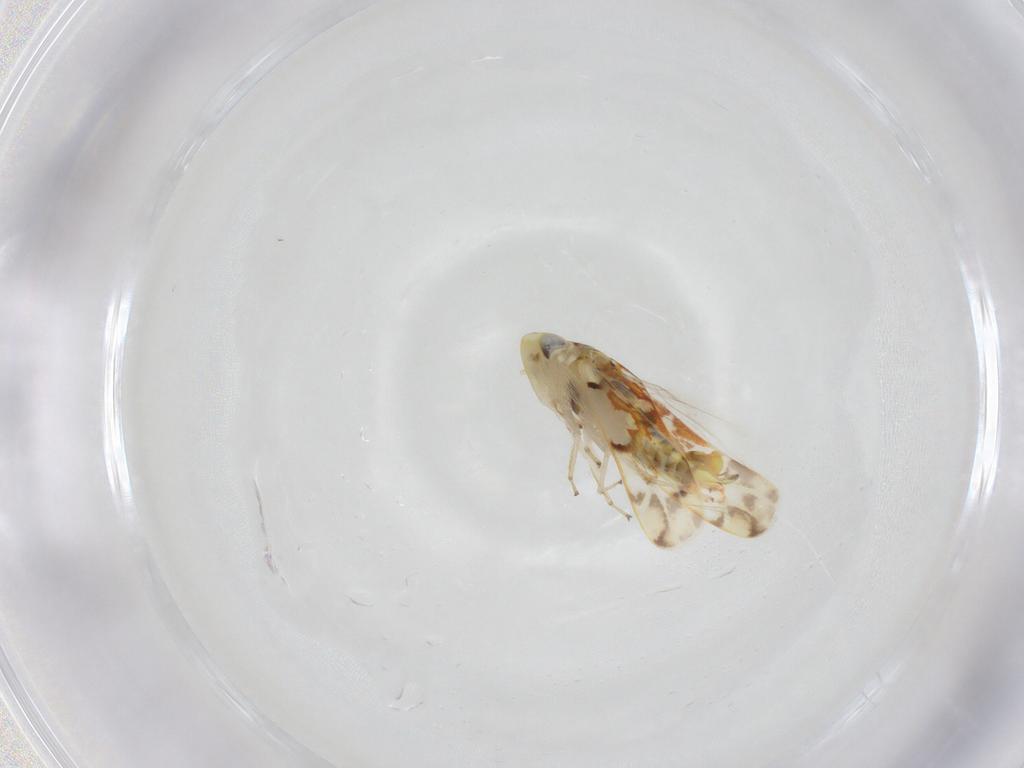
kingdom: Animalia
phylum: Arthropoda
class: Insecta
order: Hemiptera
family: Cicadellidae
